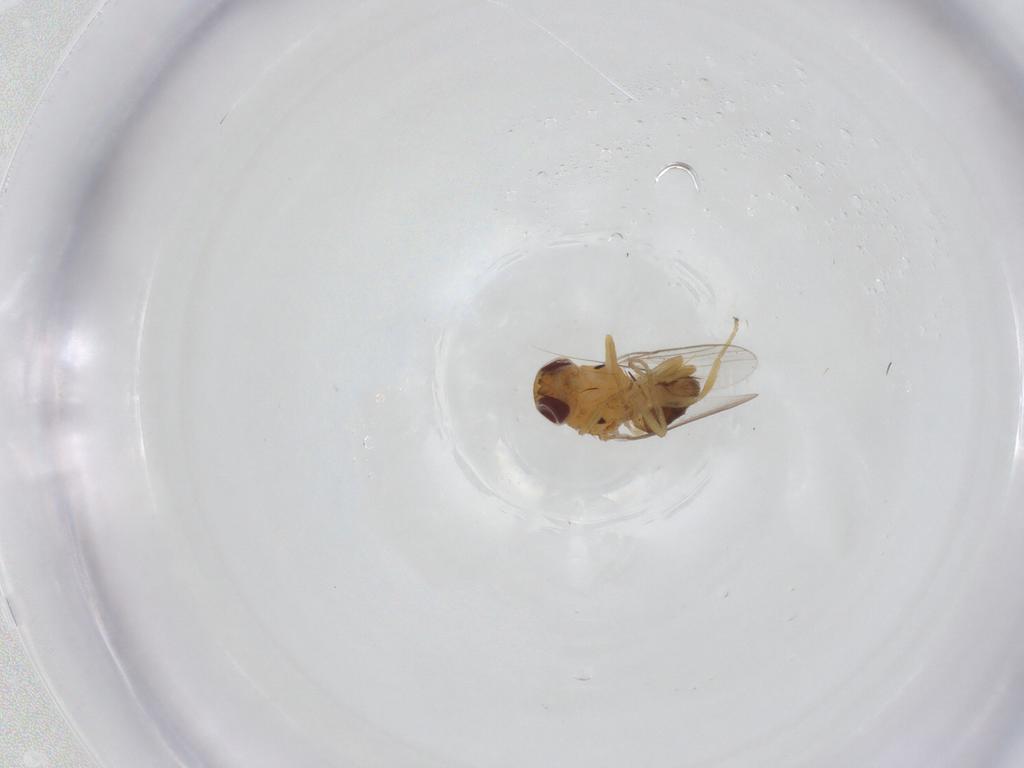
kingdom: Animalia
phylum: Arthropoda
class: Insecta
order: Diptera
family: Chloropidae
